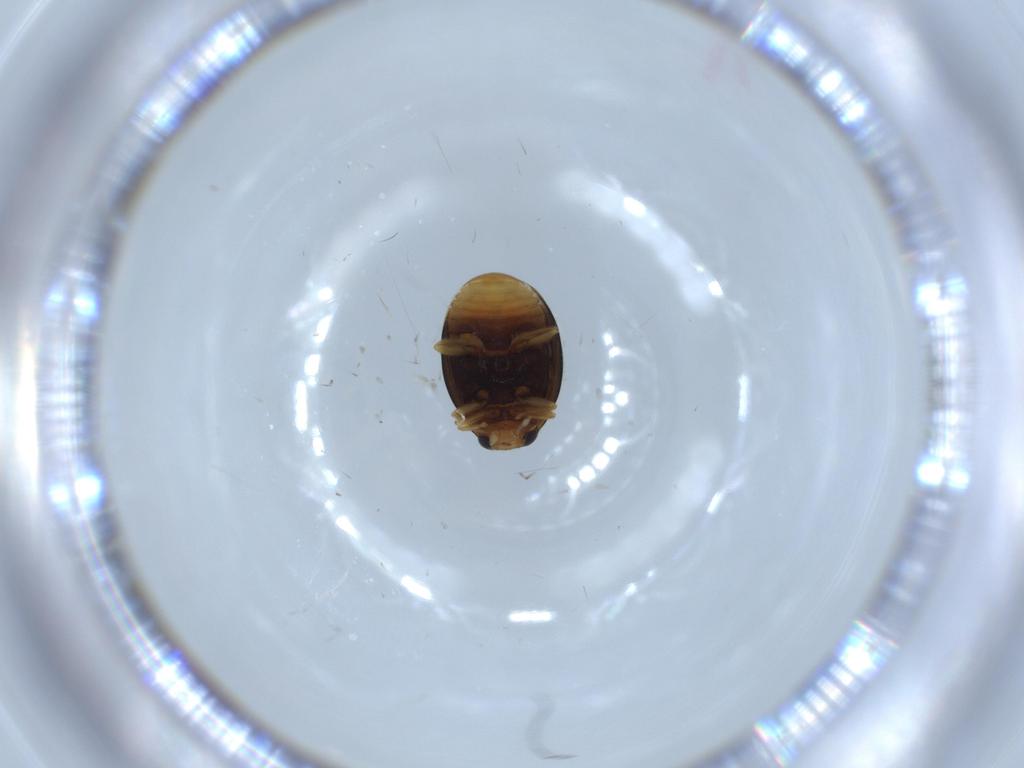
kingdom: Animalia
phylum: Arthropoda
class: Insecta
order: Coleoptera
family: Coccinellidae
